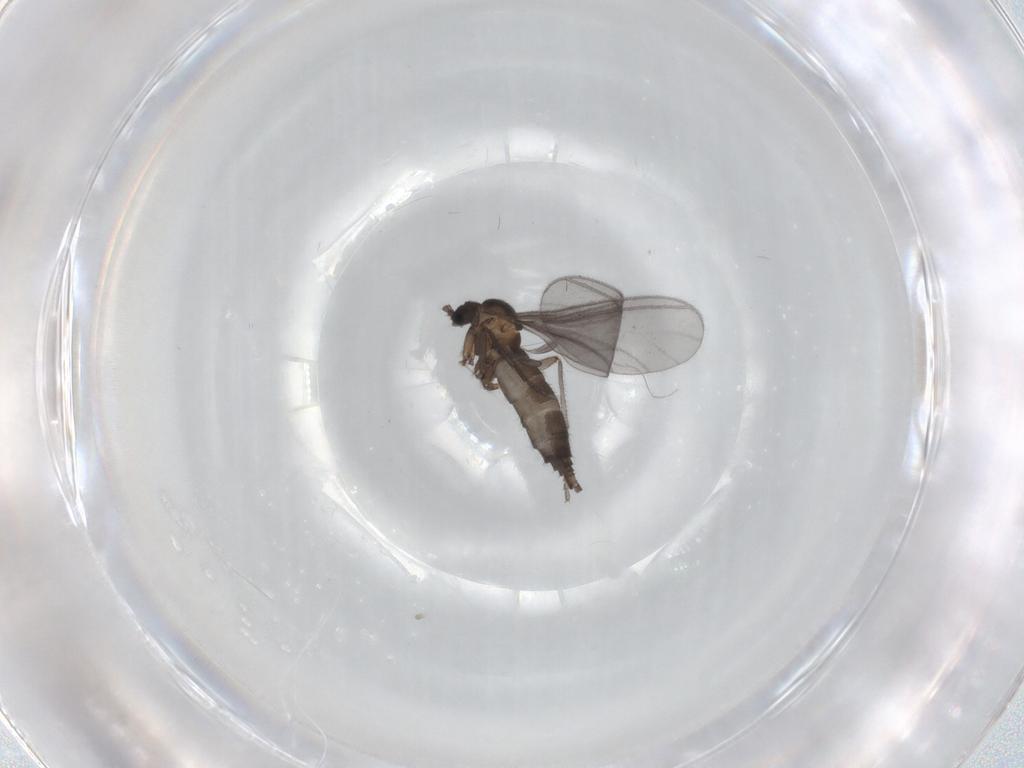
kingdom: Animalia
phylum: Arthropoda
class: Insecta
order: Diptera
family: Sciaridae
